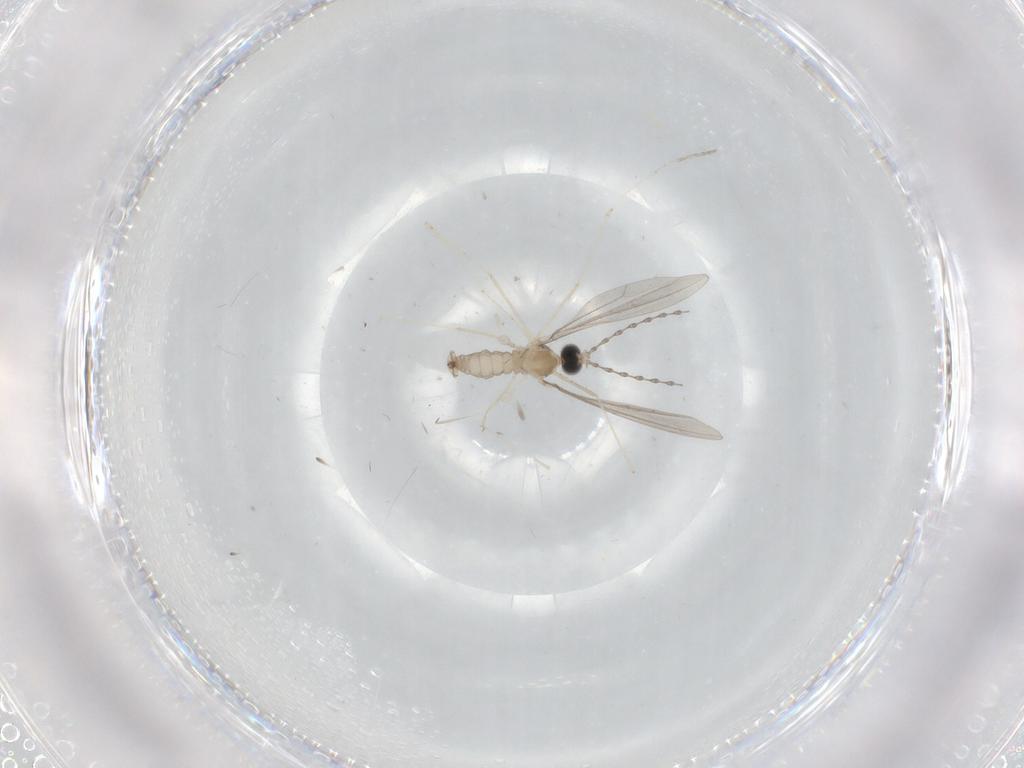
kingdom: Animalia
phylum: Arthropoda
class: Insecta
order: Diptera
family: Cecidomyiidae
